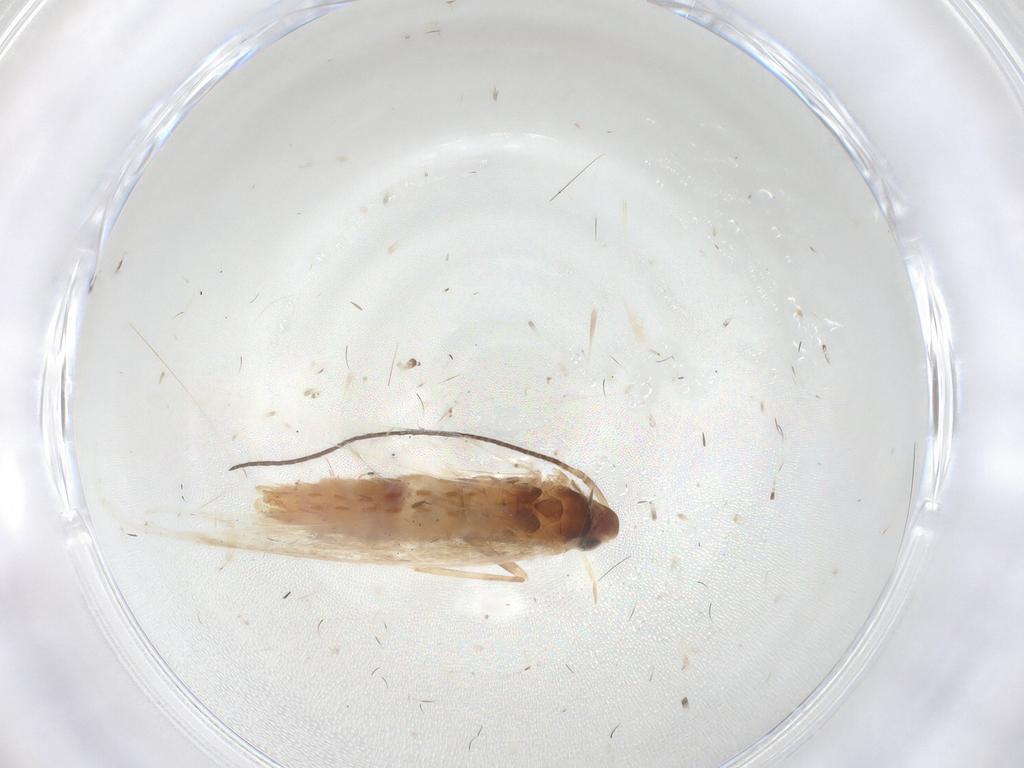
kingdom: Animalia
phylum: Arthropoda
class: Insecta
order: Lepidoptera
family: Coleophoridae
